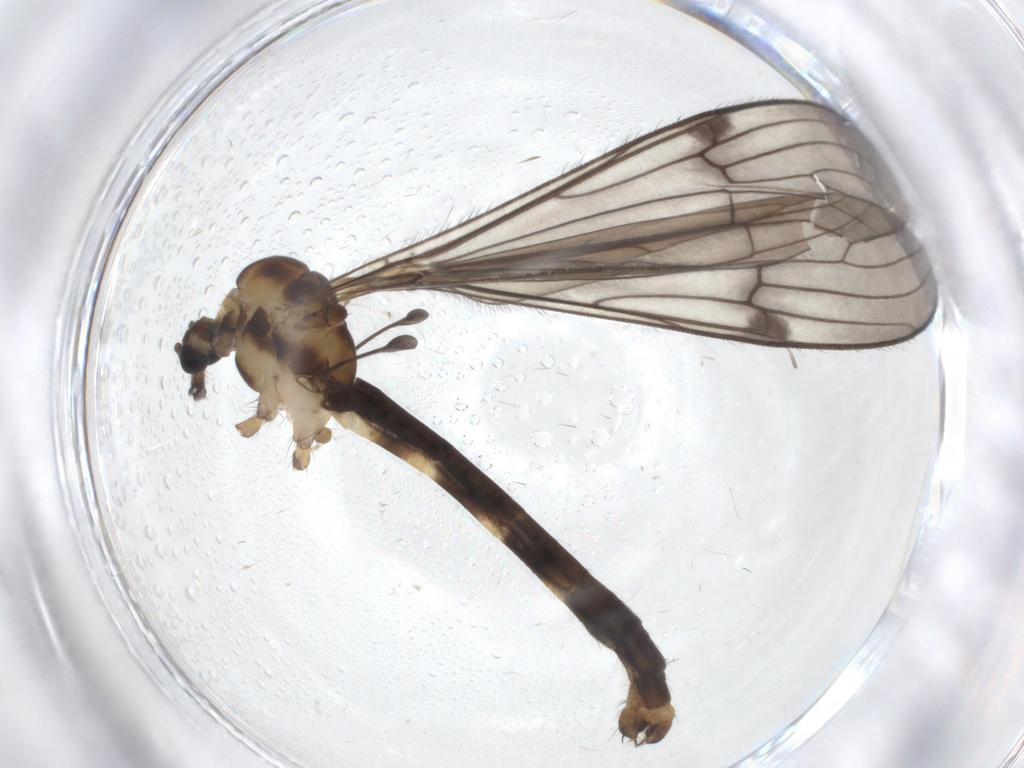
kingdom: Animalia
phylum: Arthropoda
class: Insecta
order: Diptera
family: Limoniidae
